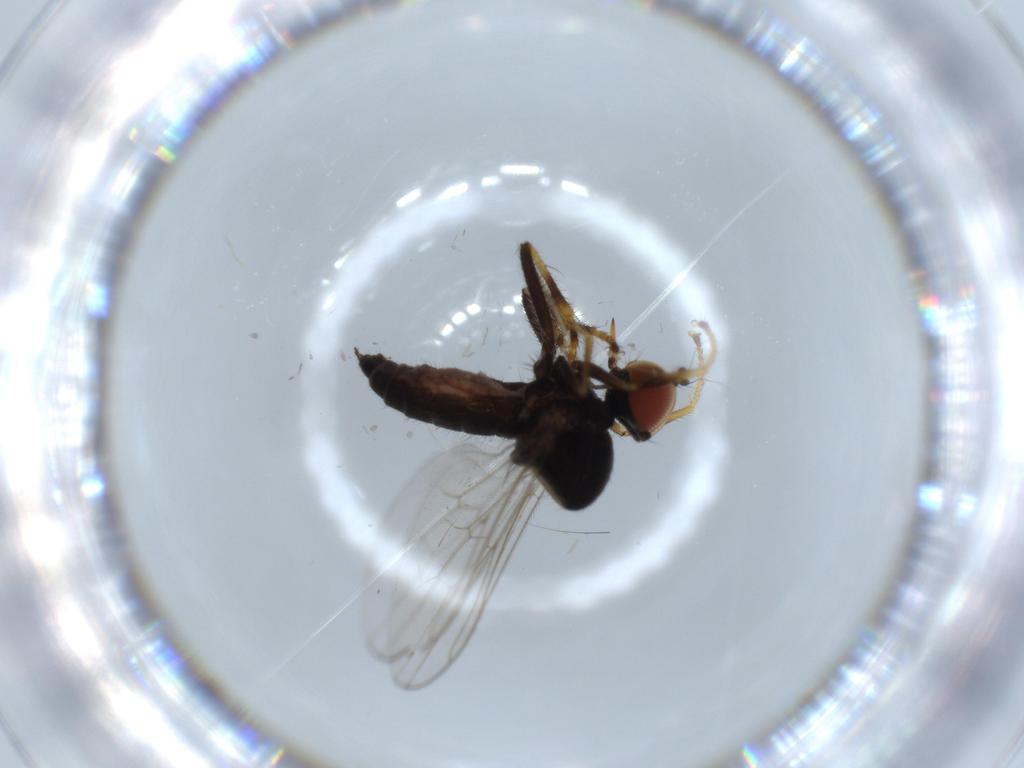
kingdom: Animalia
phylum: Arthropoda
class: Insecta
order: Diptera
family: Hybotidae
